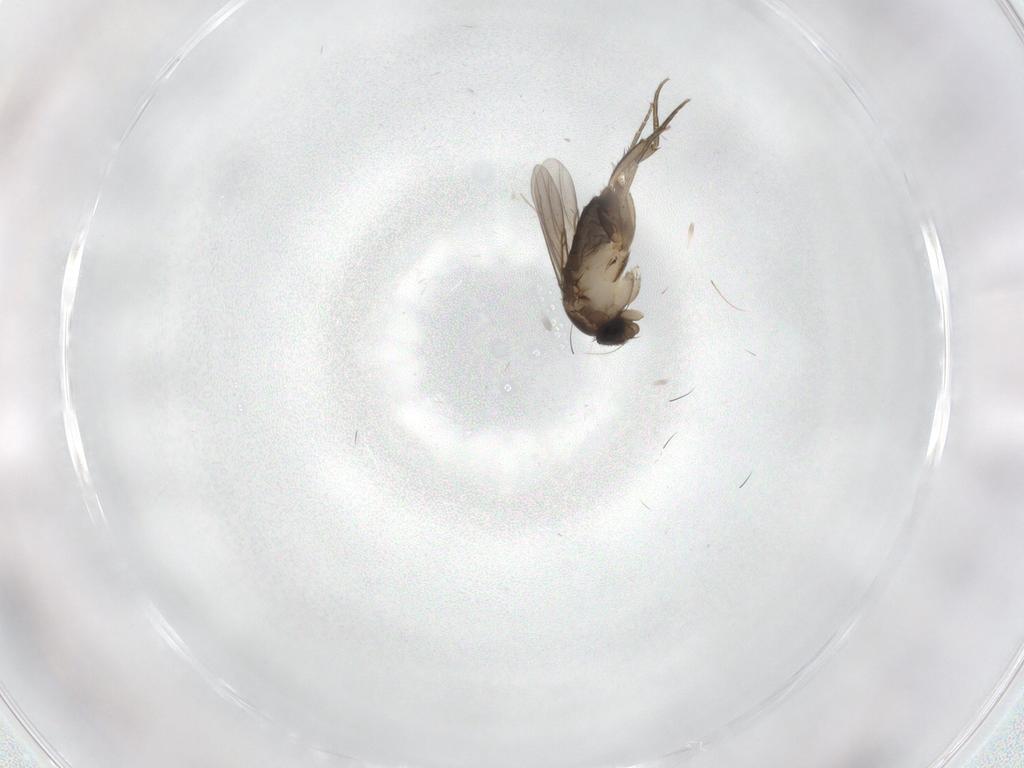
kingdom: Animalia
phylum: Arthropoda
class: Insecta
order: Diptera
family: Phoridae
